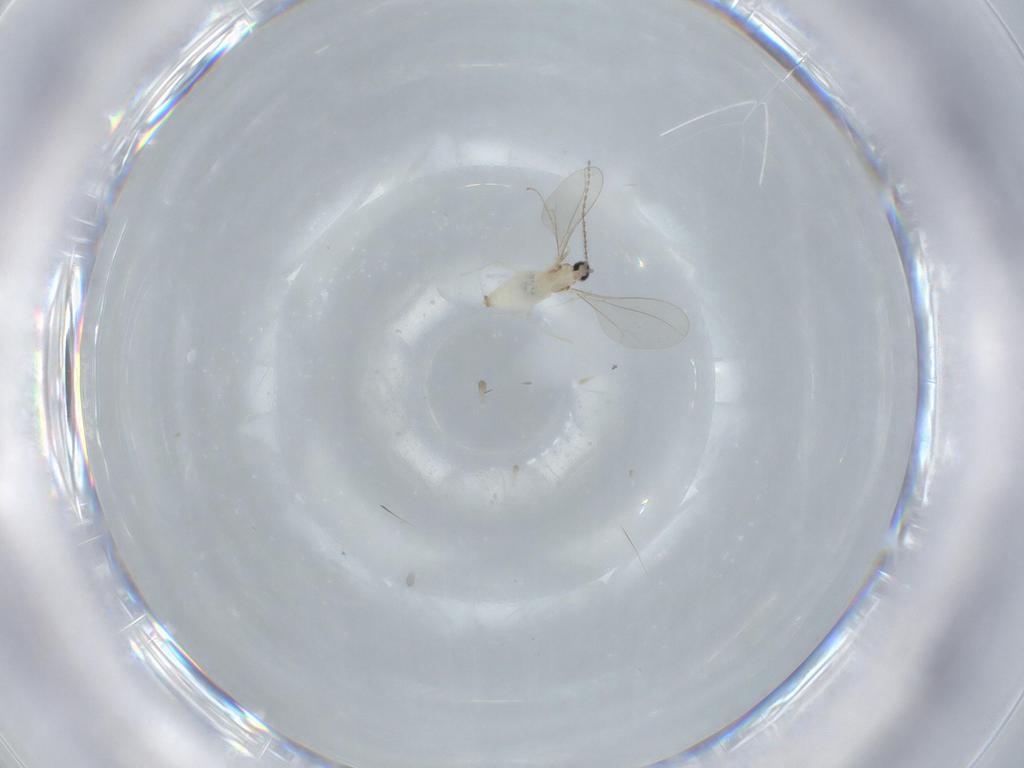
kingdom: Animalia
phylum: Arthropoda
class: Insecta
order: Diptera
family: Cecidomyiidae
